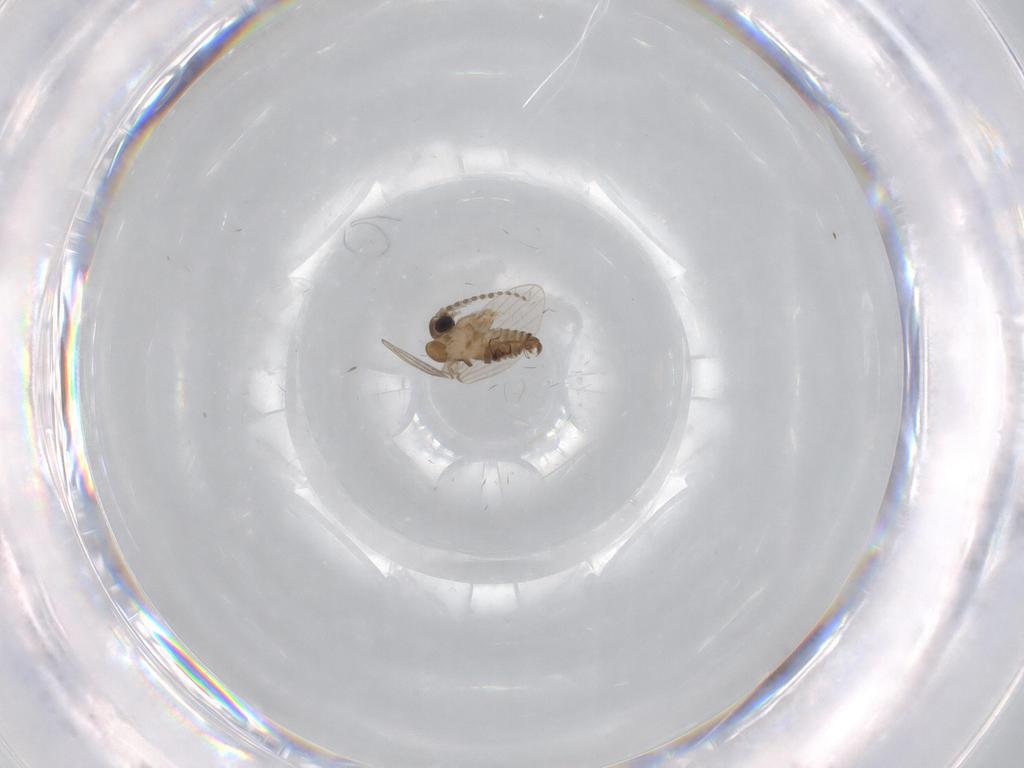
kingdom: Animalia
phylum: Arthropoda
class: Insecta
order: Diptera
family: Psychodidae
